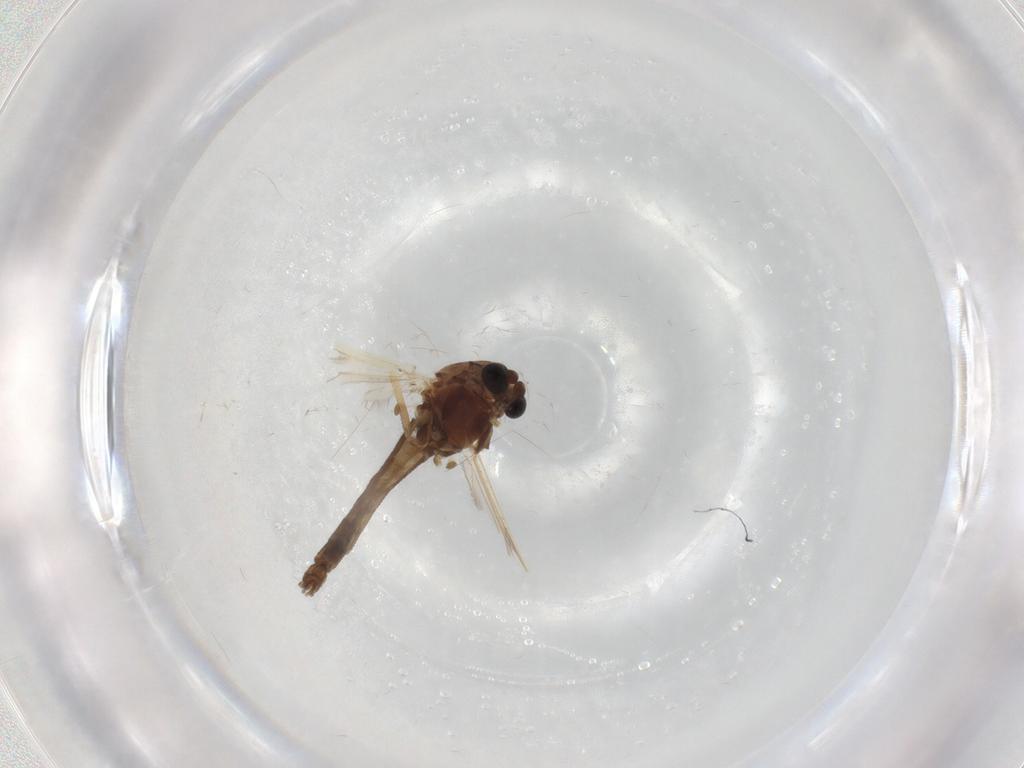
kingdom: Animalia
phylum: Arthropoda
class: Insecta
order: Diptera
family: Chironomidae
